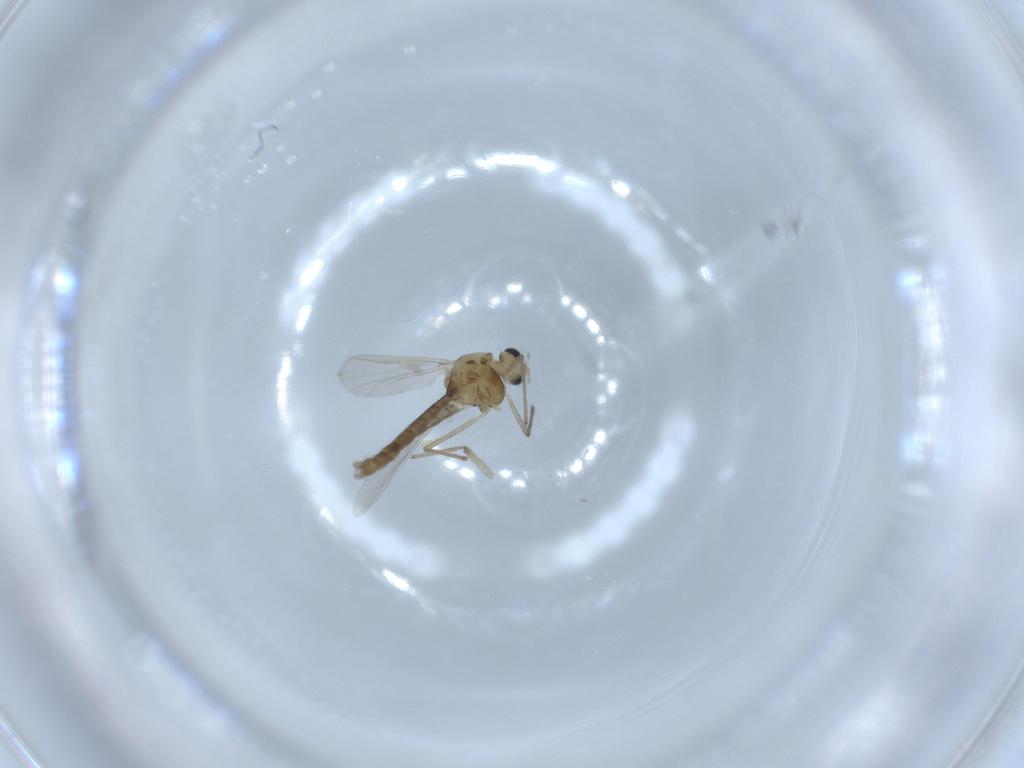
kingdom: Animalia
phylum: Arthropoda
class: Insecta
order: Diptera
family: Chironomidae
